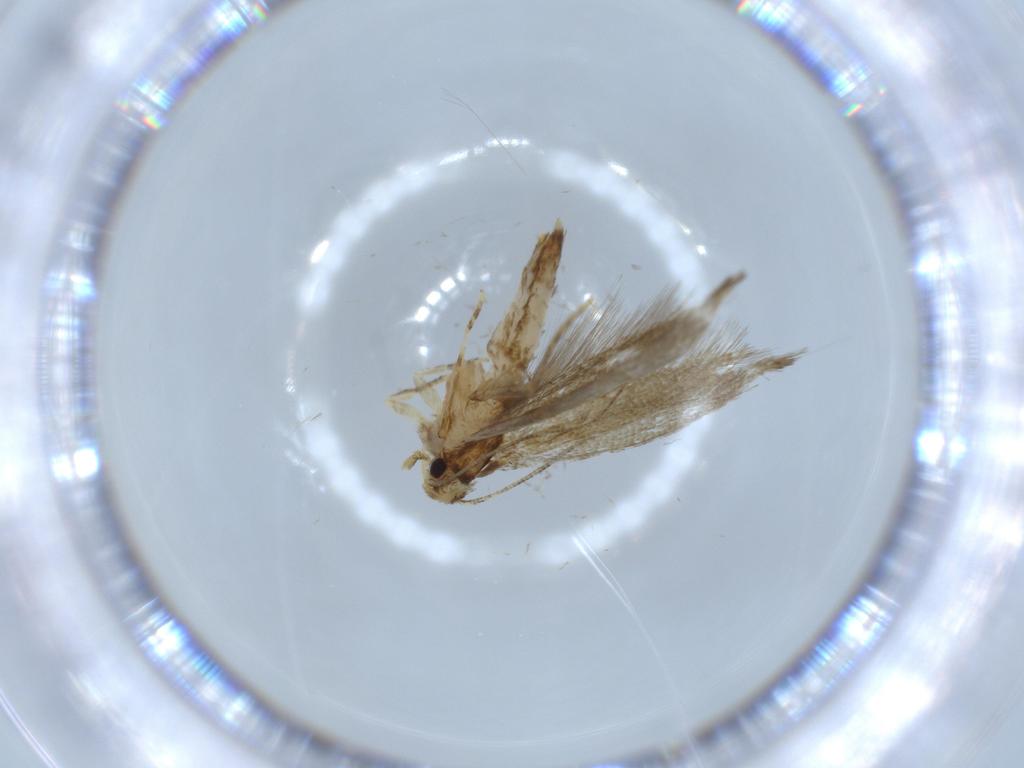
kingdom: Animalia
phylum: Arthropoda
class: Insecta
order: Lepidoptera
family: Tineidae
